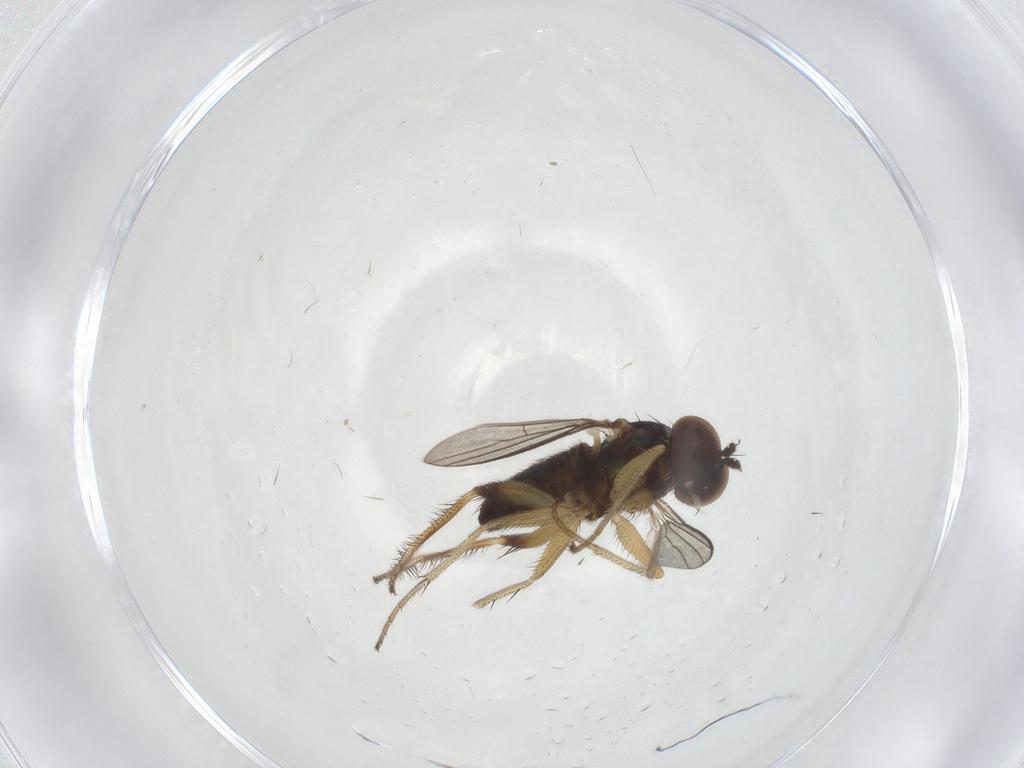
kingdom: Animalia
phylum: Arthropoda
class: Insecta
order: Diptera
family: Dolichopodidae
